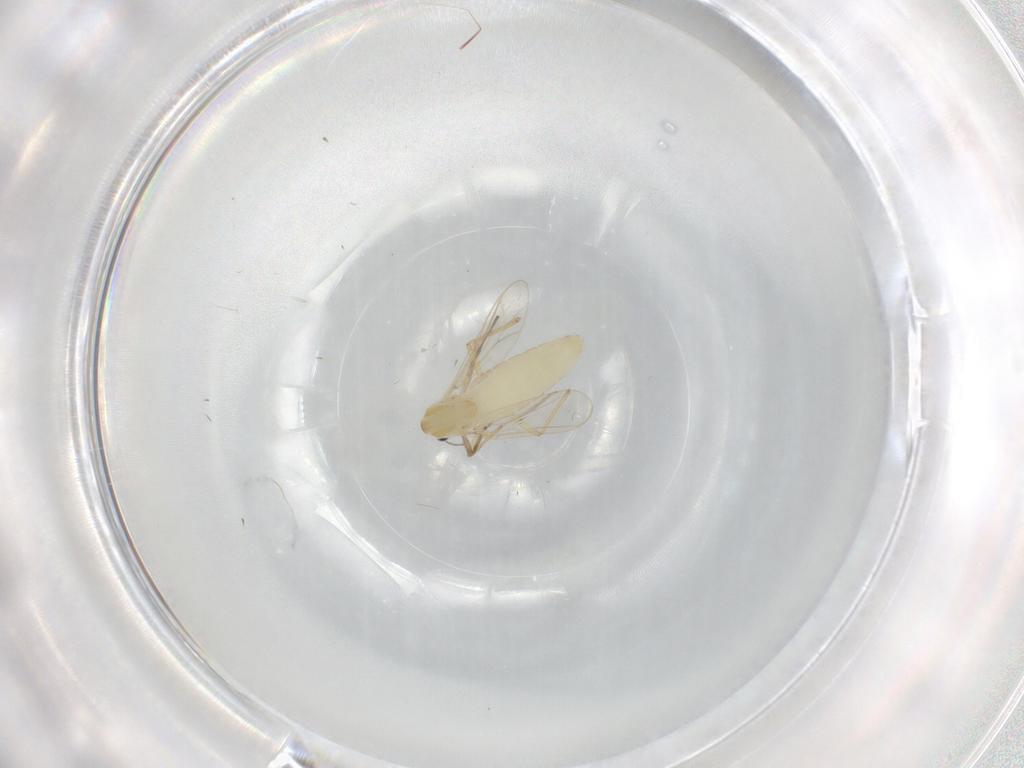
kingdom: Animalia
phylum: Arthropoda
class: Insecta
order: Diptera
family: Chironomidae
